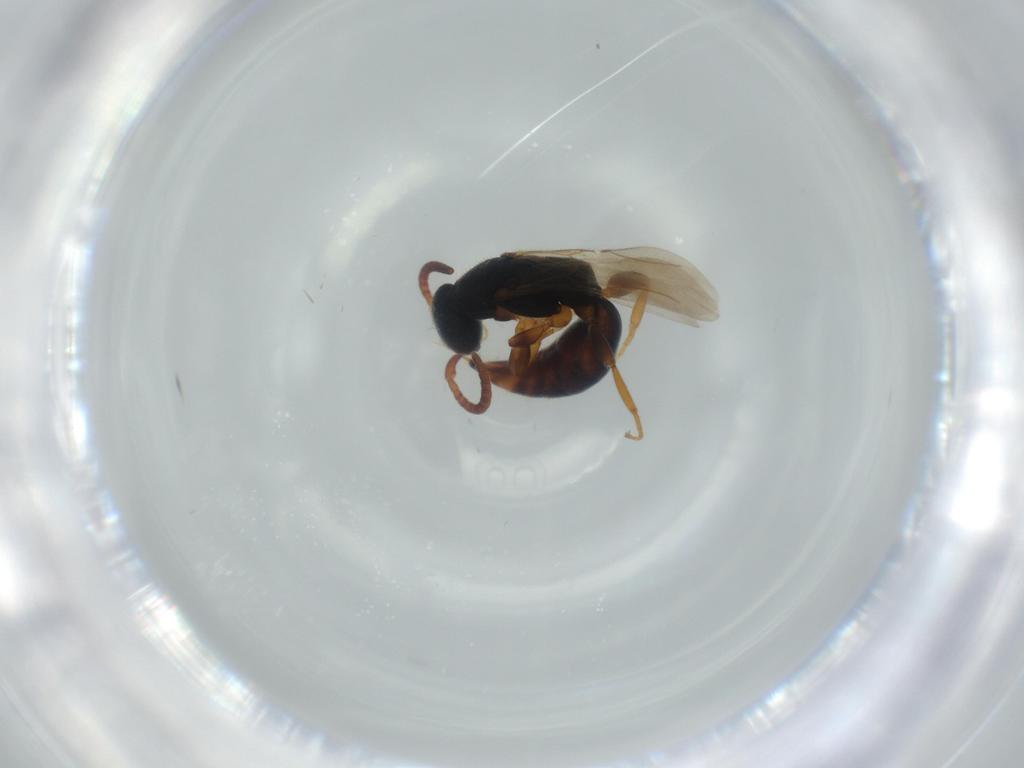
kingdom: Animalia
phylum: Arthropoda
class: Insecta
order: Hymenoptera
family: Bethylidae
